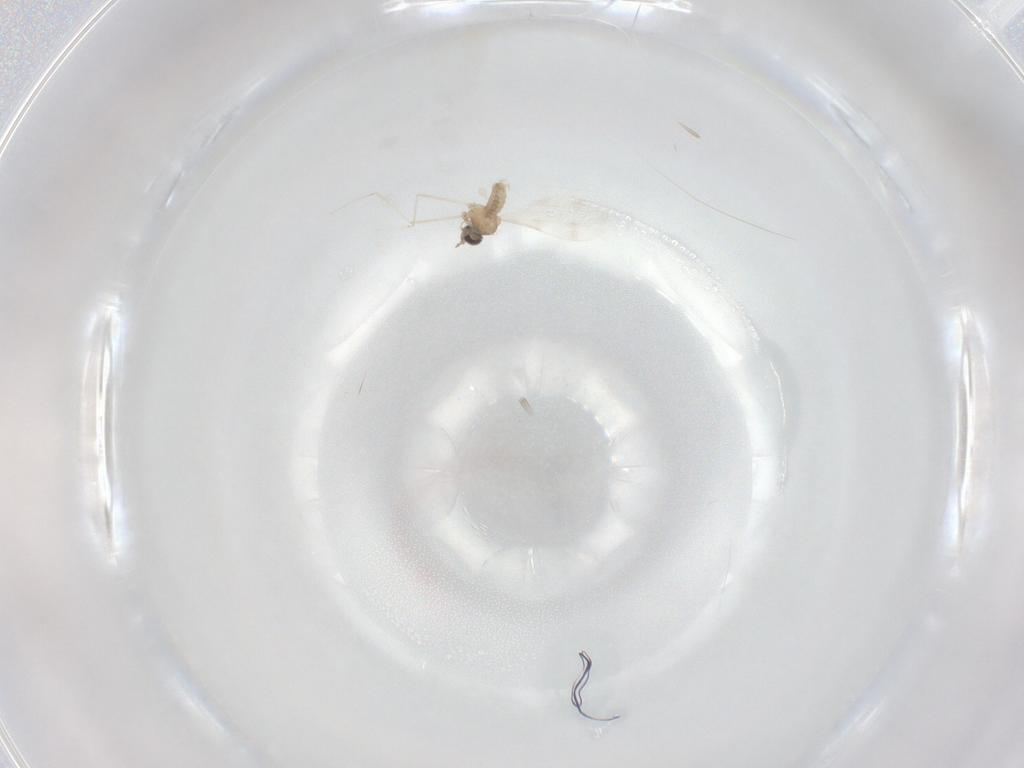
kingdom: Animalia
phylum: Arthropoda
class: Insecta
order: Diptera
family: Cecidomyiidae
